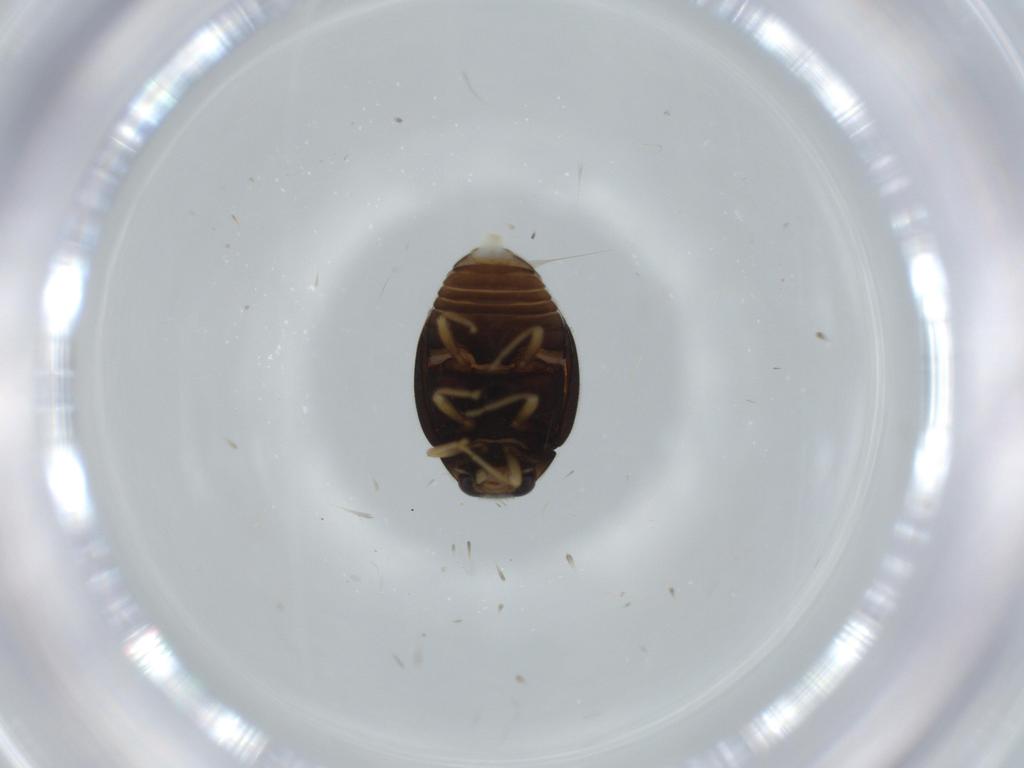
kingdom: Animalia
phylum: Arthropoda
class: Insecta
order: Coleoptera
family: Coccinellidae
